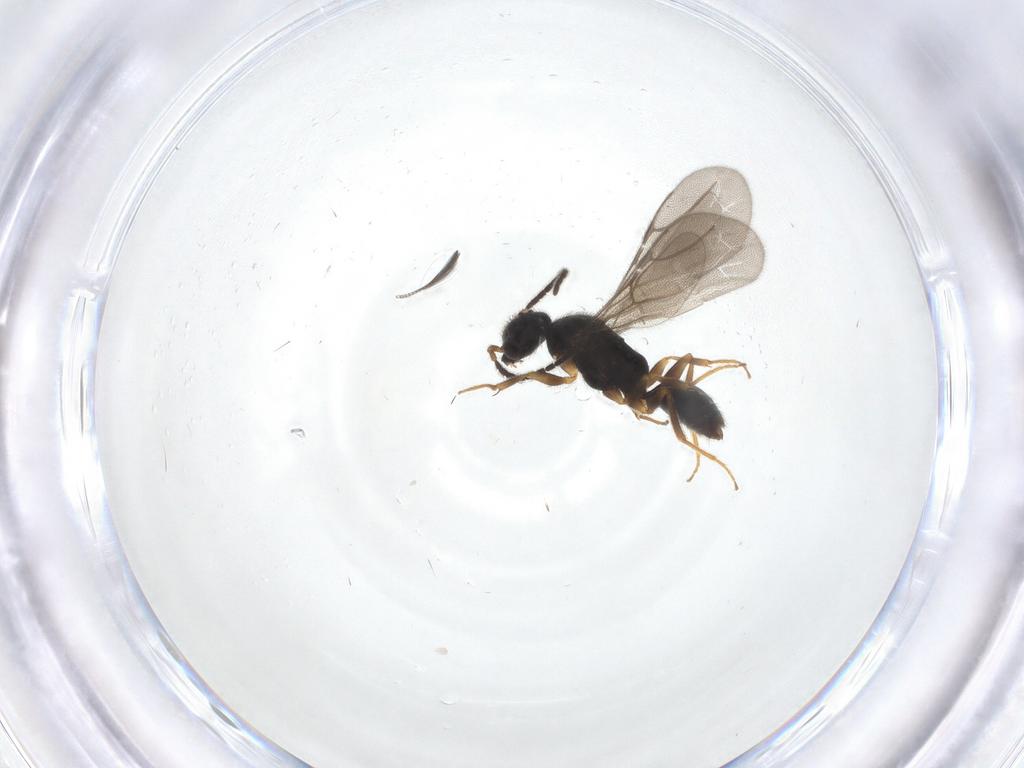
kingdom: Animalia
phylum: Arthropoda
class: Insecta
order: Hymenoptera
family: Bethylidae
